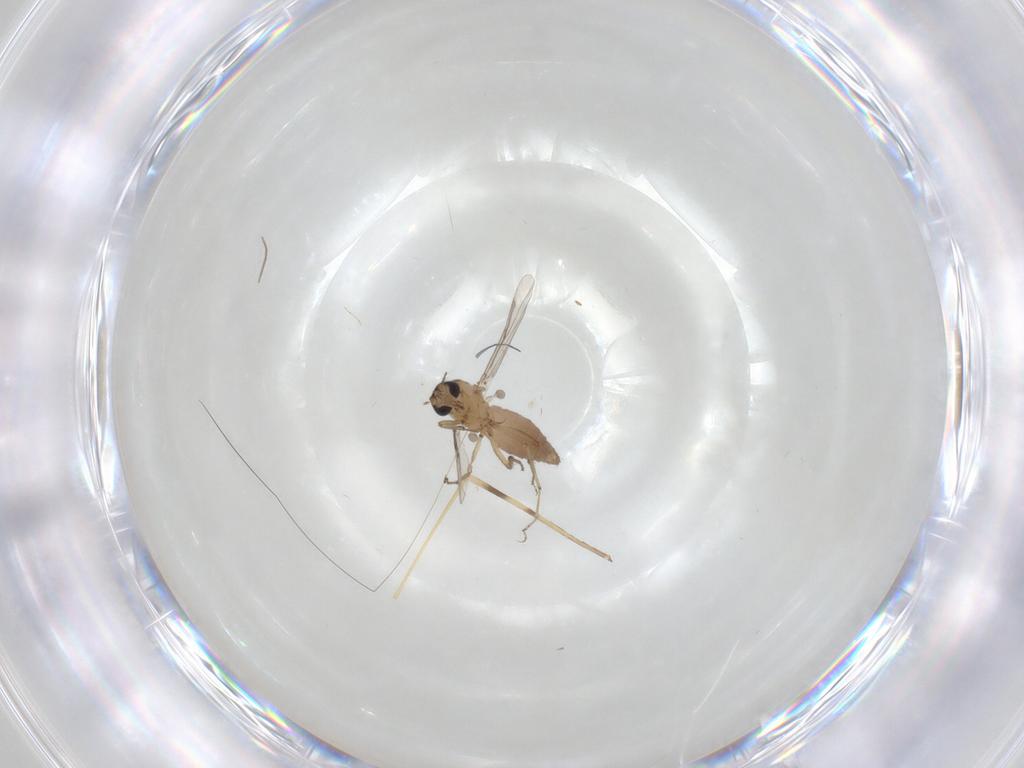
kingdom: Animalia
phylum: Arthropoda
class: Insecta
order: Diptera
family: Limoniidae
